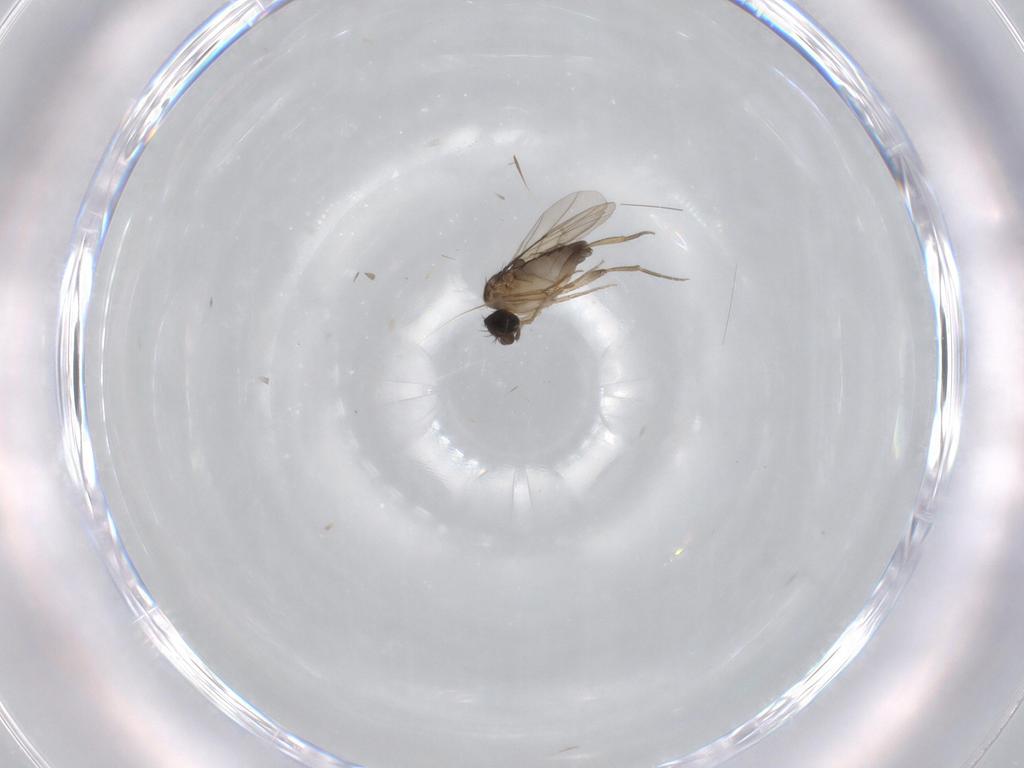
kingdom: Animalia
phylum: Arthropoda
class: Insecta
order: Diptera
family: Phoridae
